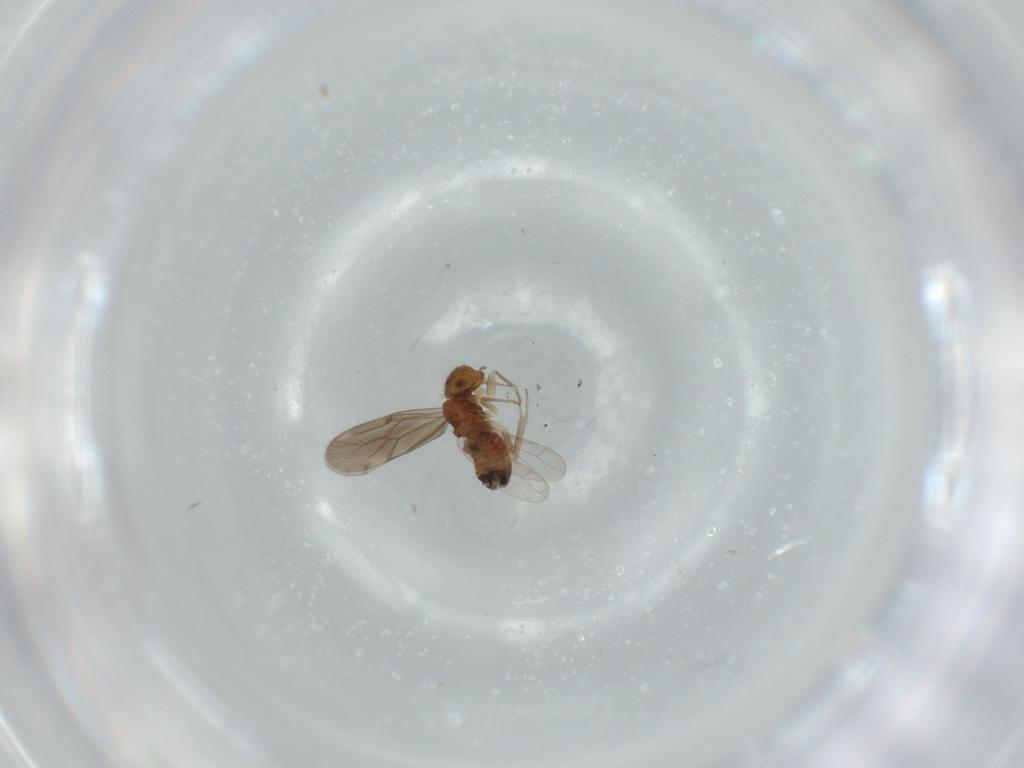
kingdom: Animalia
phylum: Arthropoda
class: Insecta
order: Psocodea
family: Ectopsocidae
